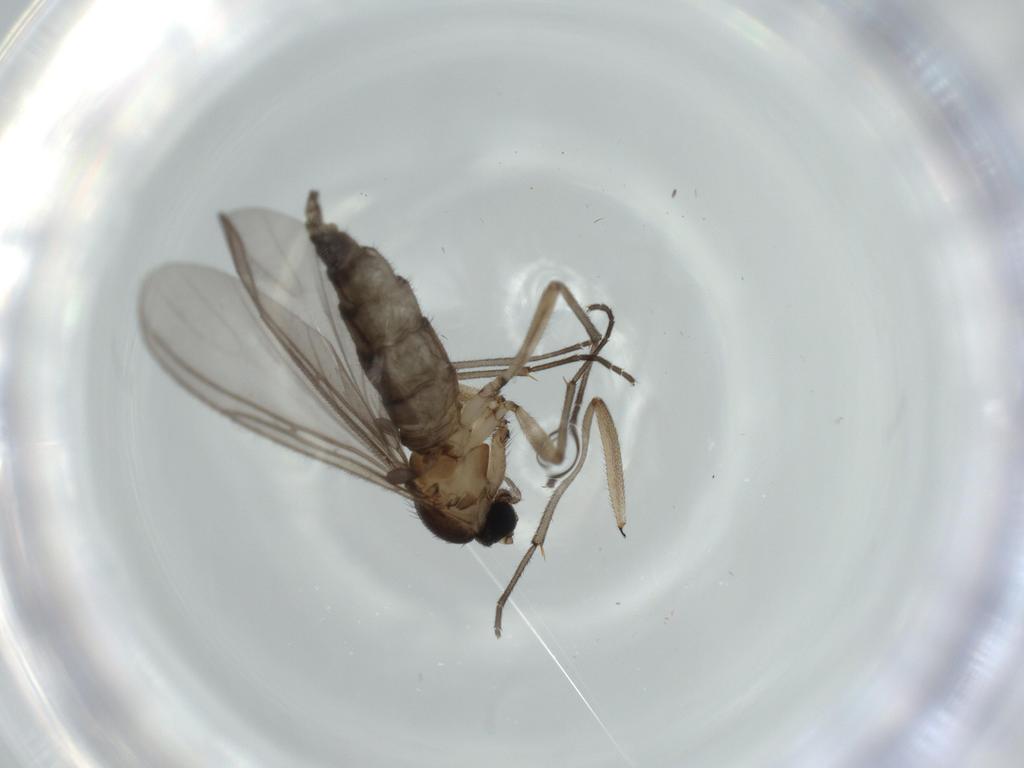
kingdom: Animalia
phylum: Arthropoda
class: Insecta
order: Diptera
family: Sciaridae
